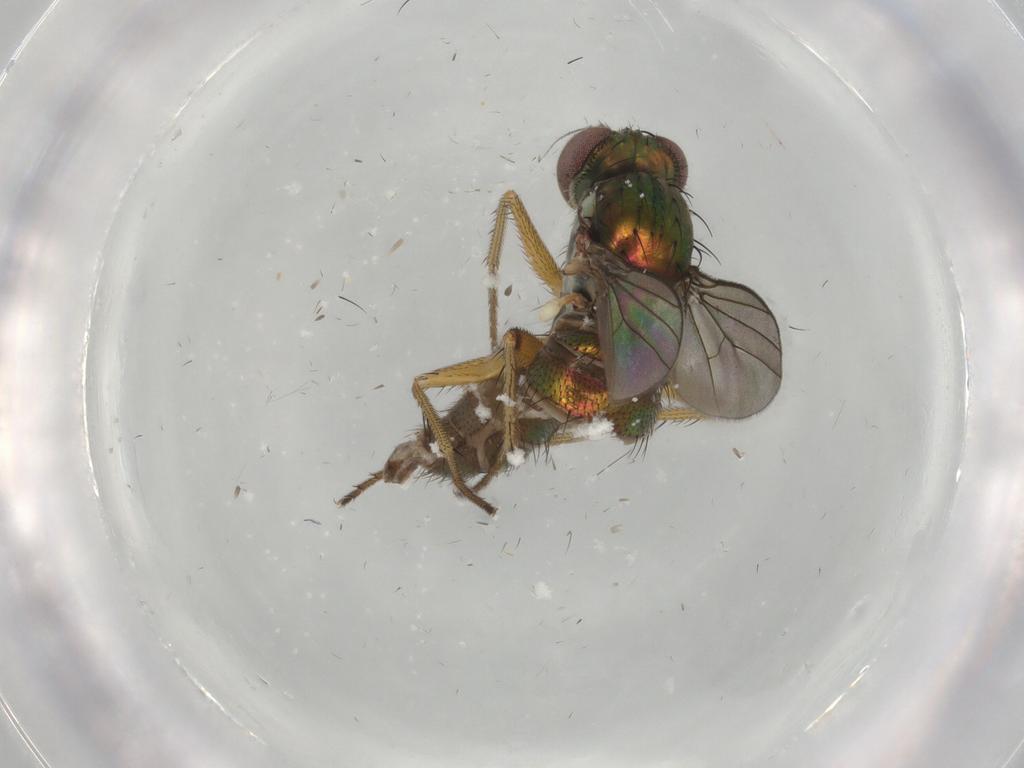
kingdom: Animalia
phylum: Arthropoda
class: Insecta
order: Diptera
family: Dolichopodidae
